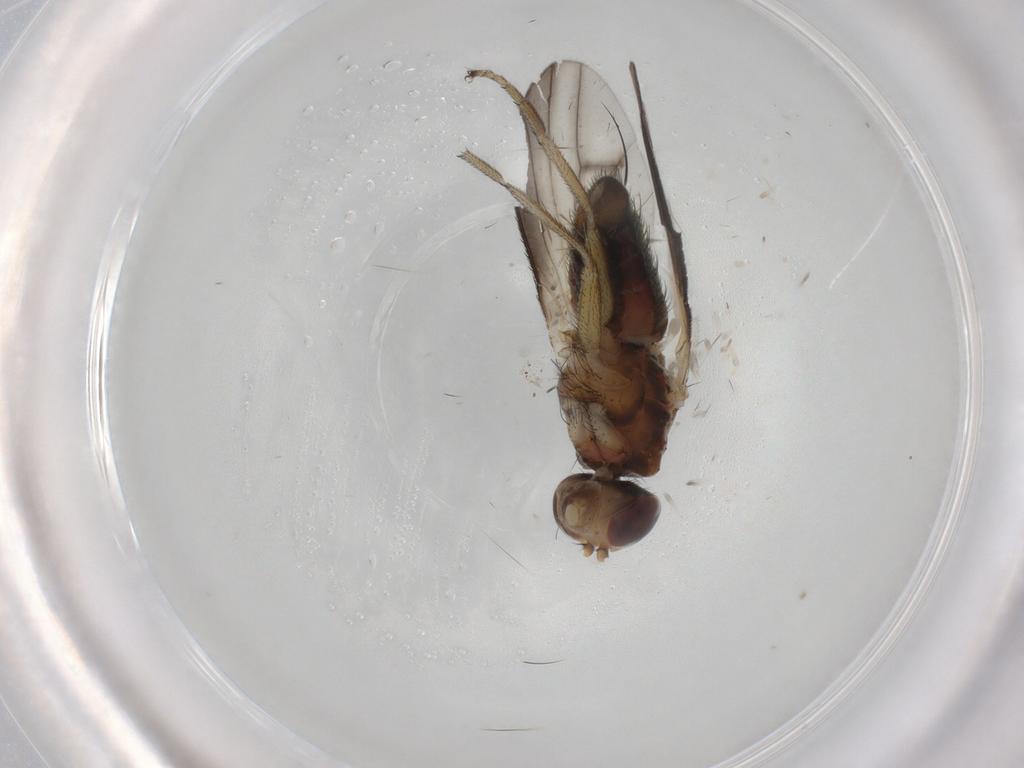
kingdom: Animalia
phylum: Arthropoda
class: Insecta
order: Diptera
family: Heleomyzidae
